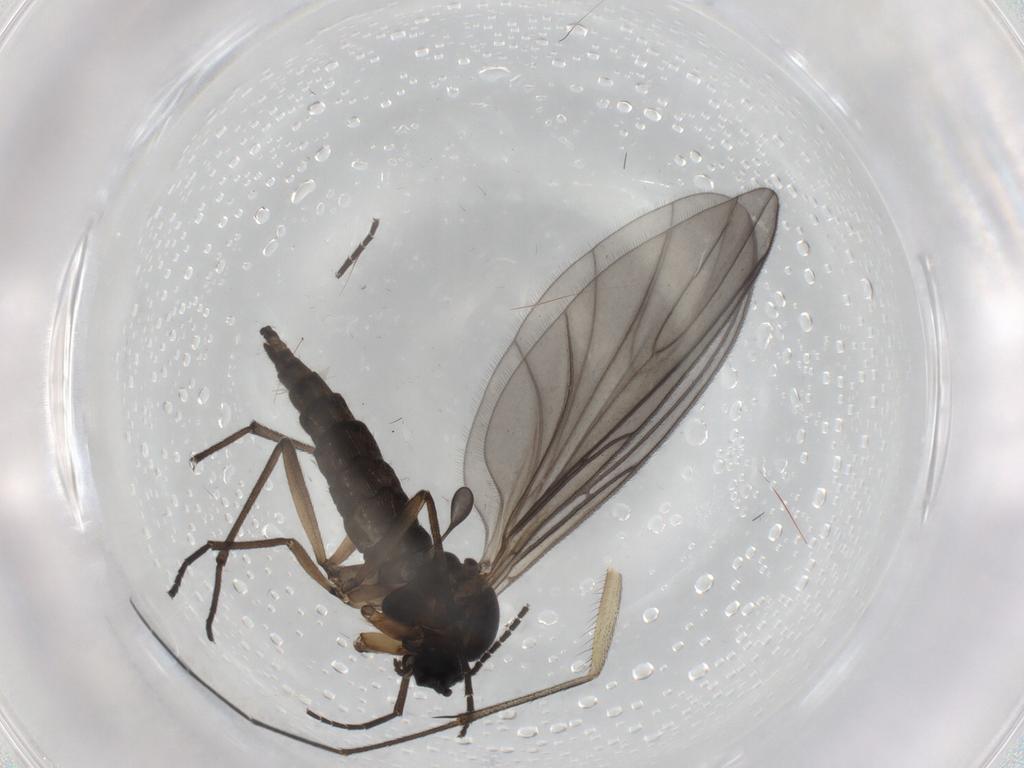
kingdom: Animalia
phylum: Arthropoda
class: Insecta
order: Diptera
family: Sciaridae
